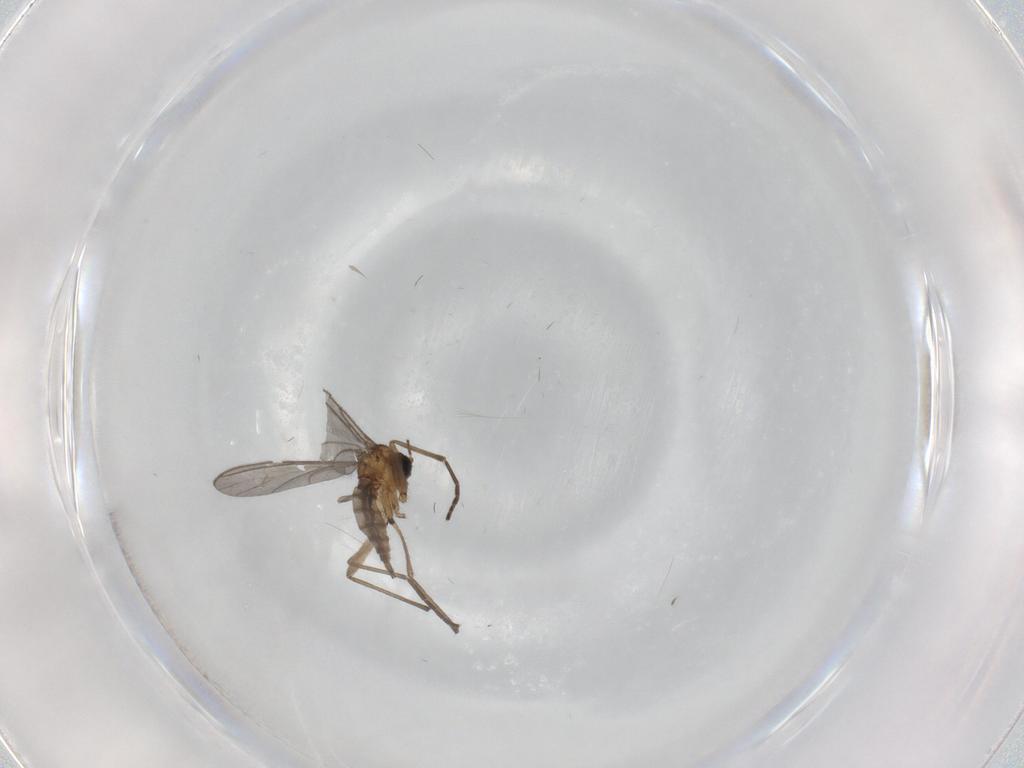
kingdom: Animalia
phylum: Arthropoda
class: Insecta
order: Diptera
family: Sciaridae
